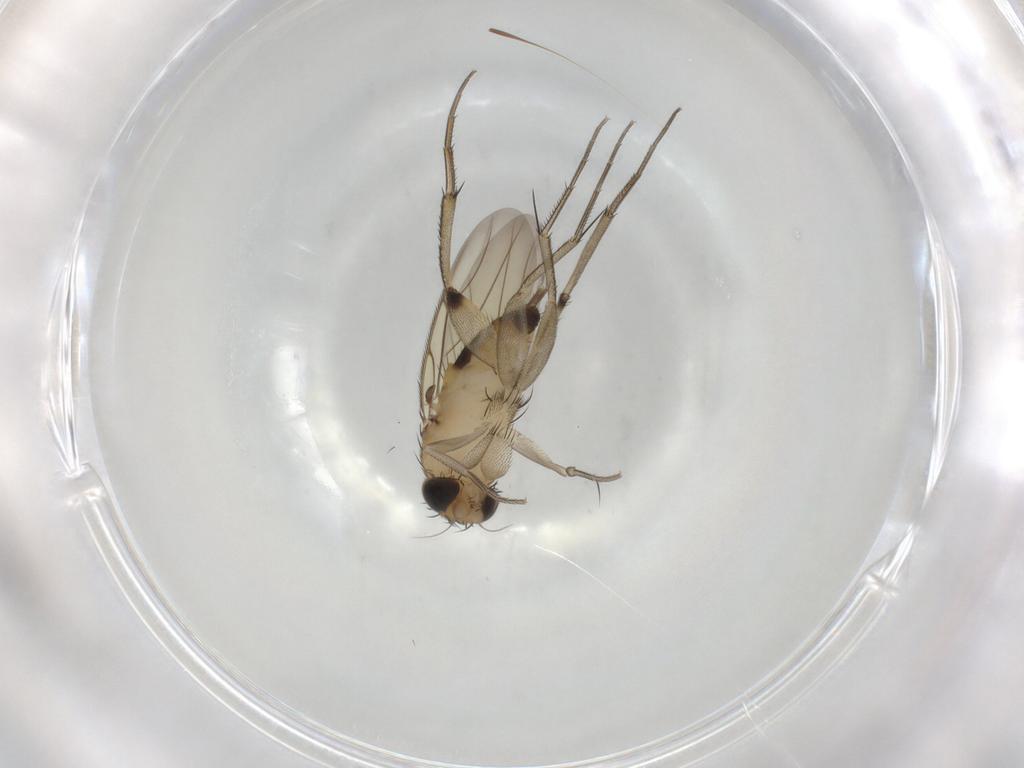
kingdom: Animalia
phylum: Arthropoda
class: Insecta
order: Diptera
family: Phoridae
